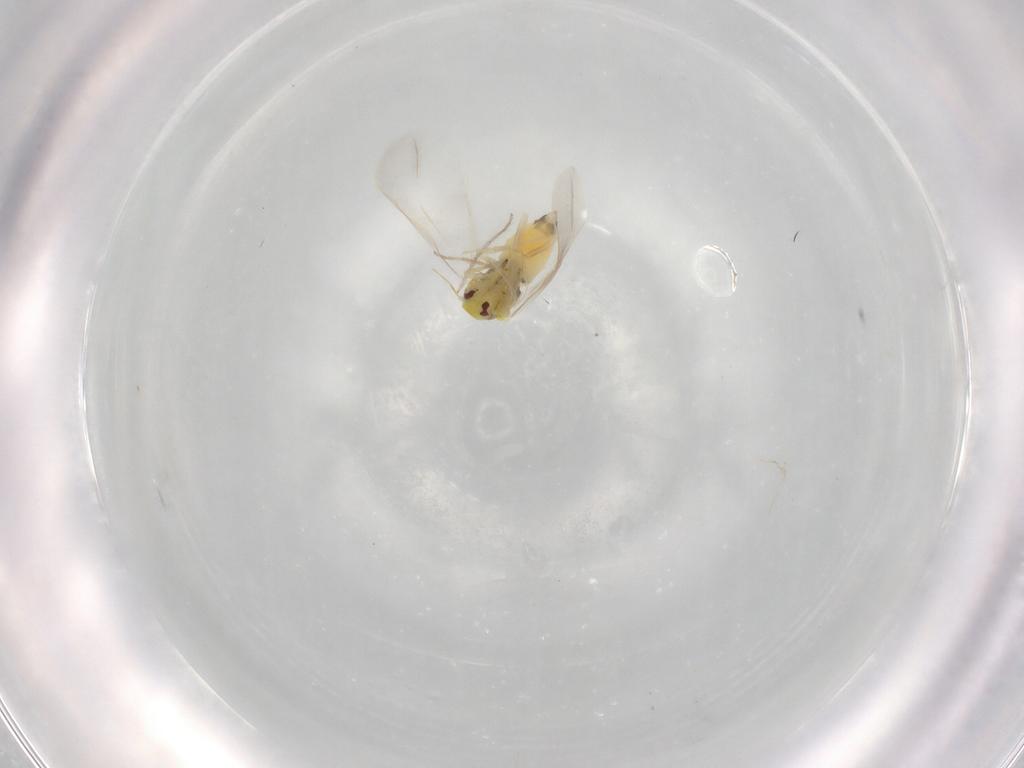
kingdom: Animalia
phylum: Arthropoda
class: Insecta
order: Hemiptera
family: Aleyrodidae
